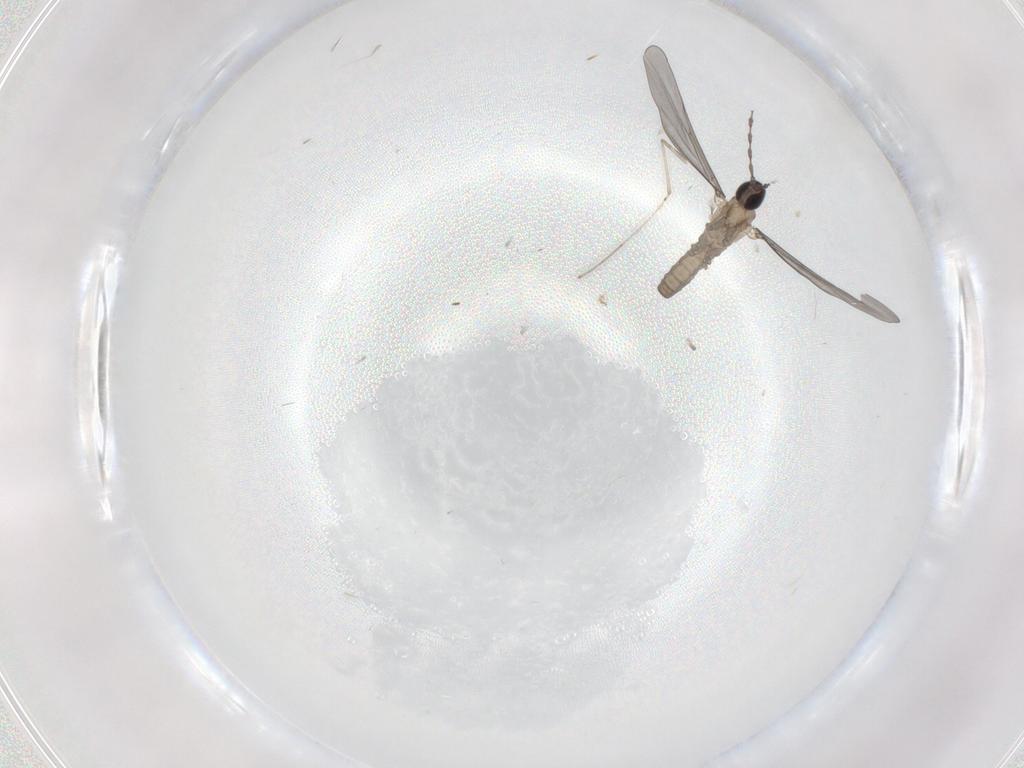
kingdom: Animalia
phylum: Arthropoda
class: Insecta
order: Diptera
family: Cecidomyiidae
